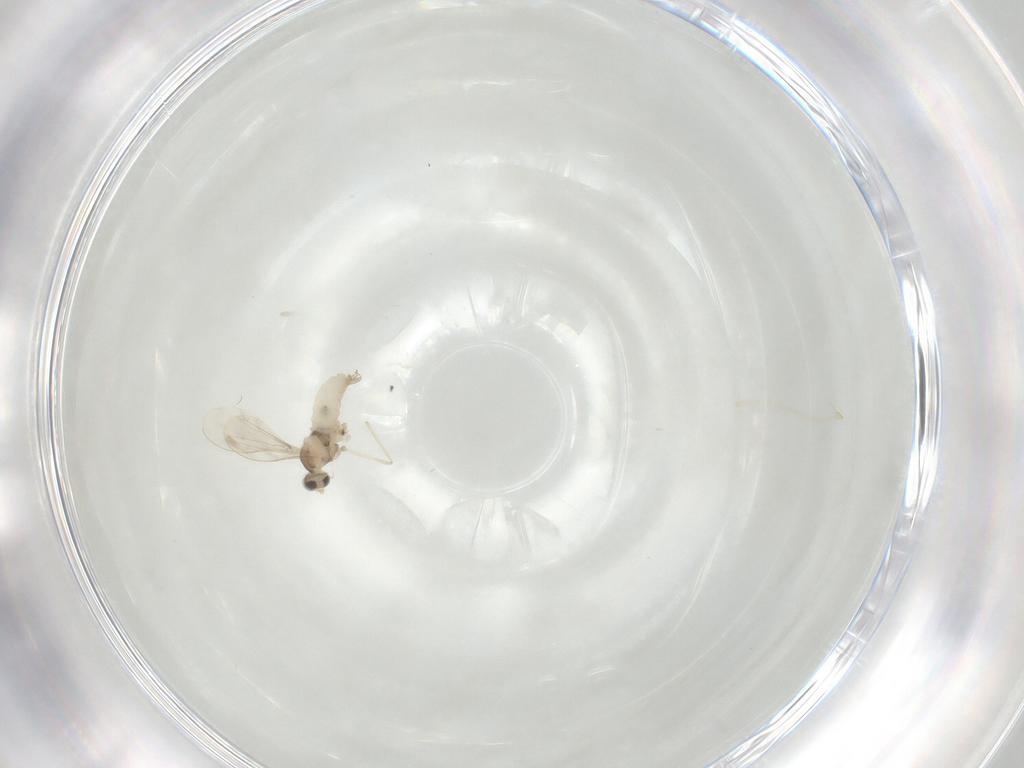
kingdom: Animalia
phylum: Arthropoda
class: Insecta
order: Diptera
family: Cecidomyiidae
